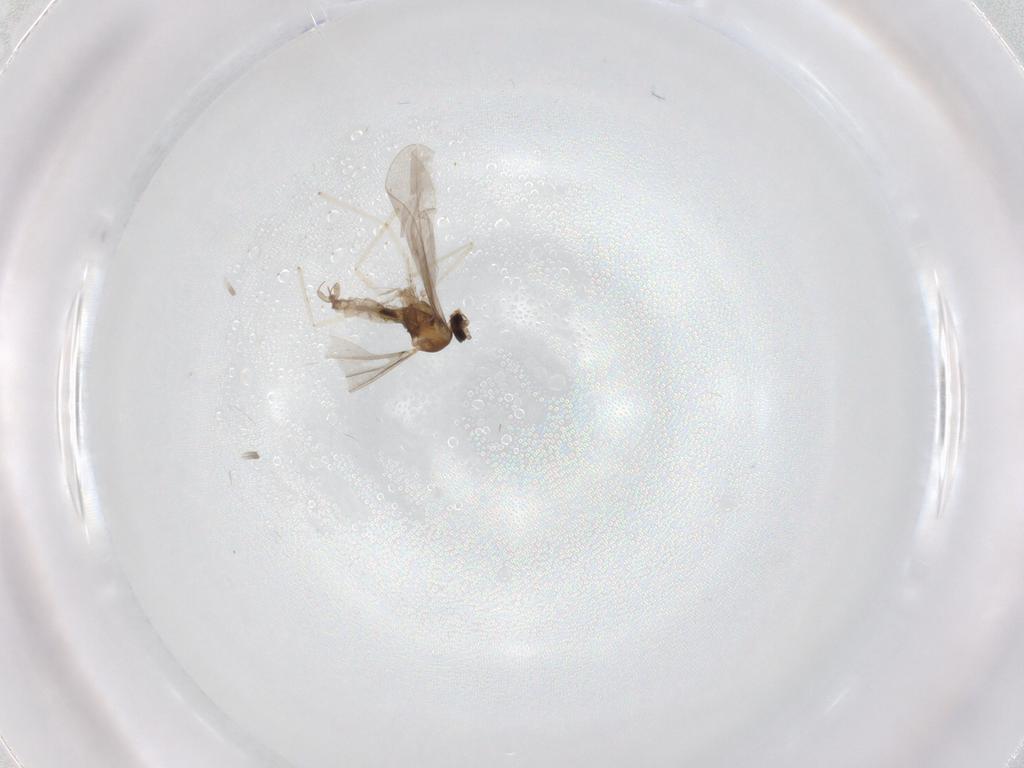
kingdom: Animalia
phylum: Arthropoda
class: Insecta
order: Diptera
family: Cecidomyiidae
